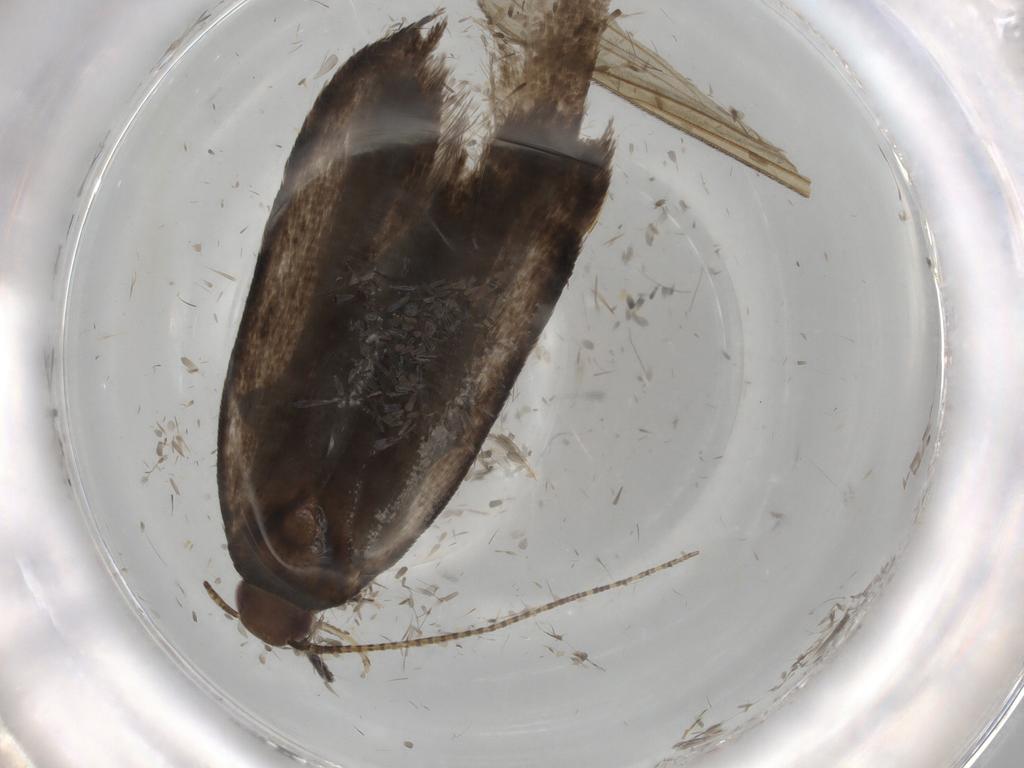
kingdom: Animalia
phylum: Arthropoda
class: Insecta
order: Lepidoptera
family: Gelechiidae
